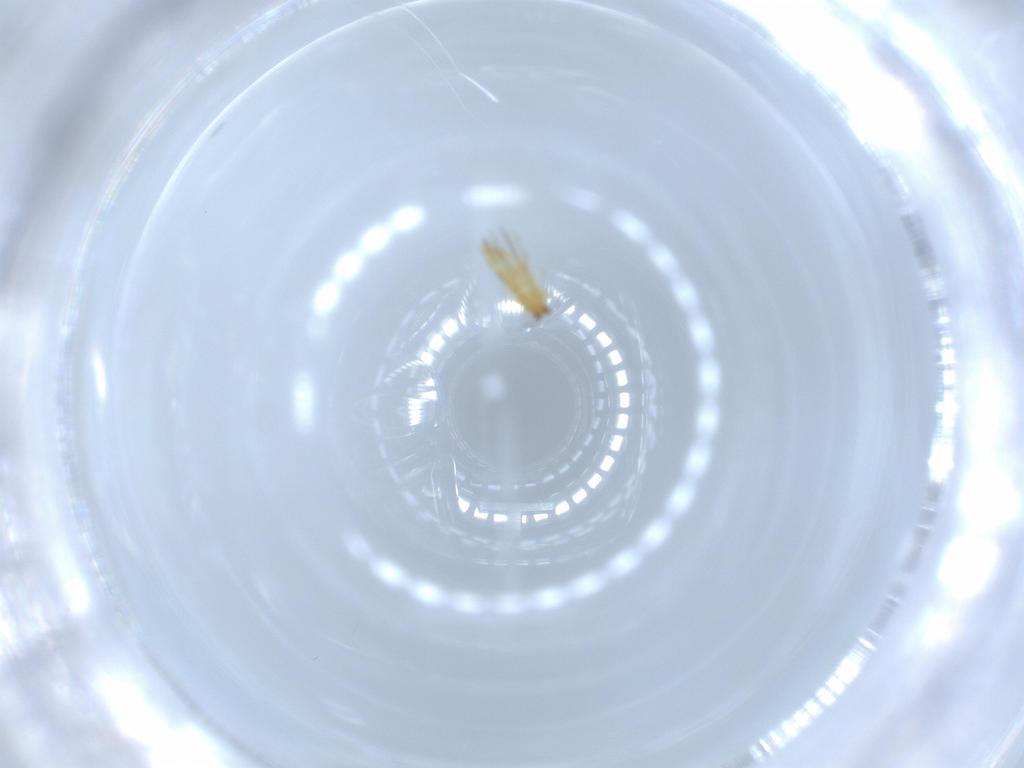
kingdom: Animalia
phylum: Arthropoda
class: Insecta
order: Thysanoptera
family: Thripidae
